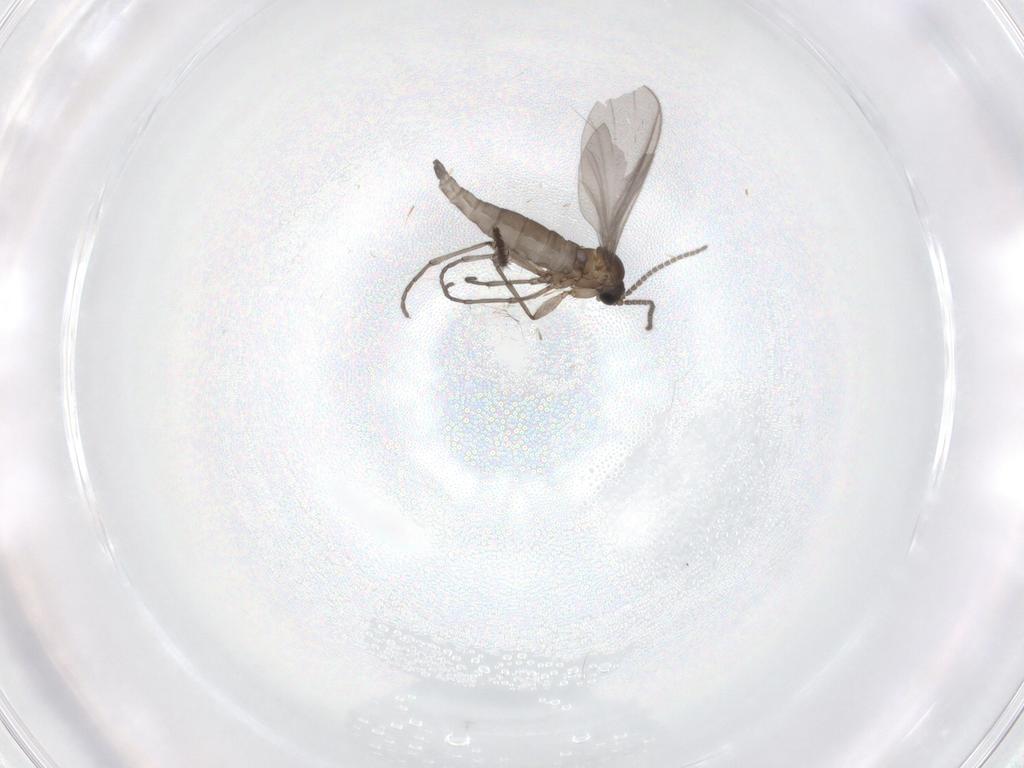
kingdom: Animalia
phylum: Arthropoda
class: Insecta
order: Diptera
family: Sciaridae
